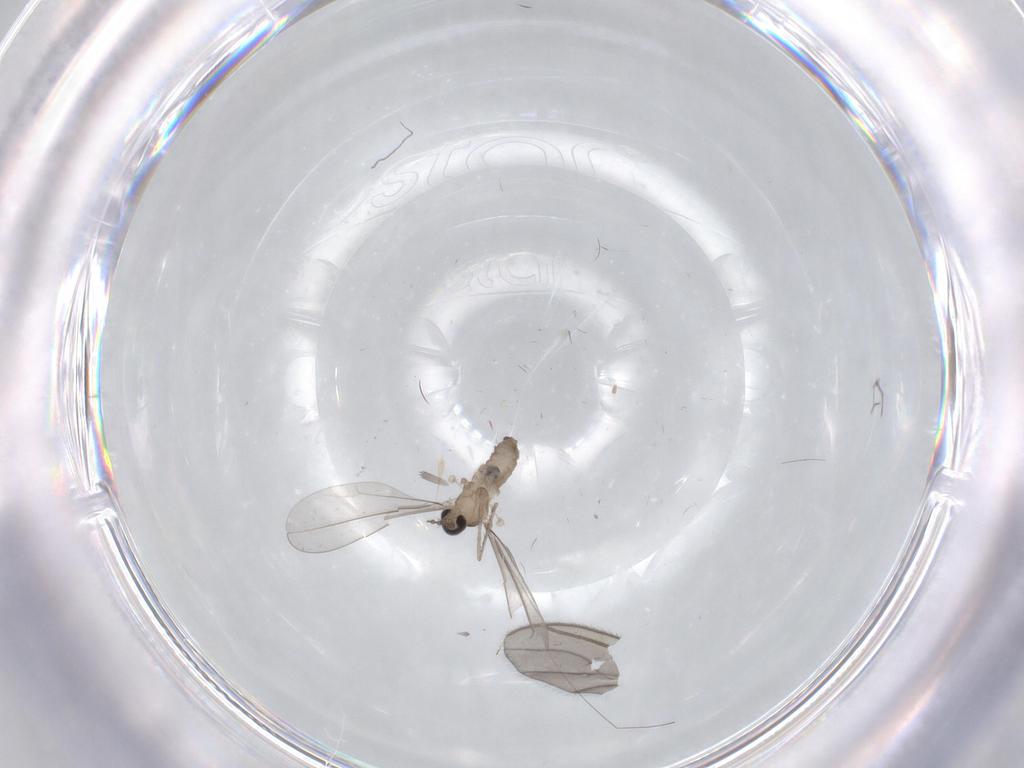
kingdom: Animalia
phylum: Arthropoda
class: Insecta
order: Diptera
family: Cecidomyiidae
